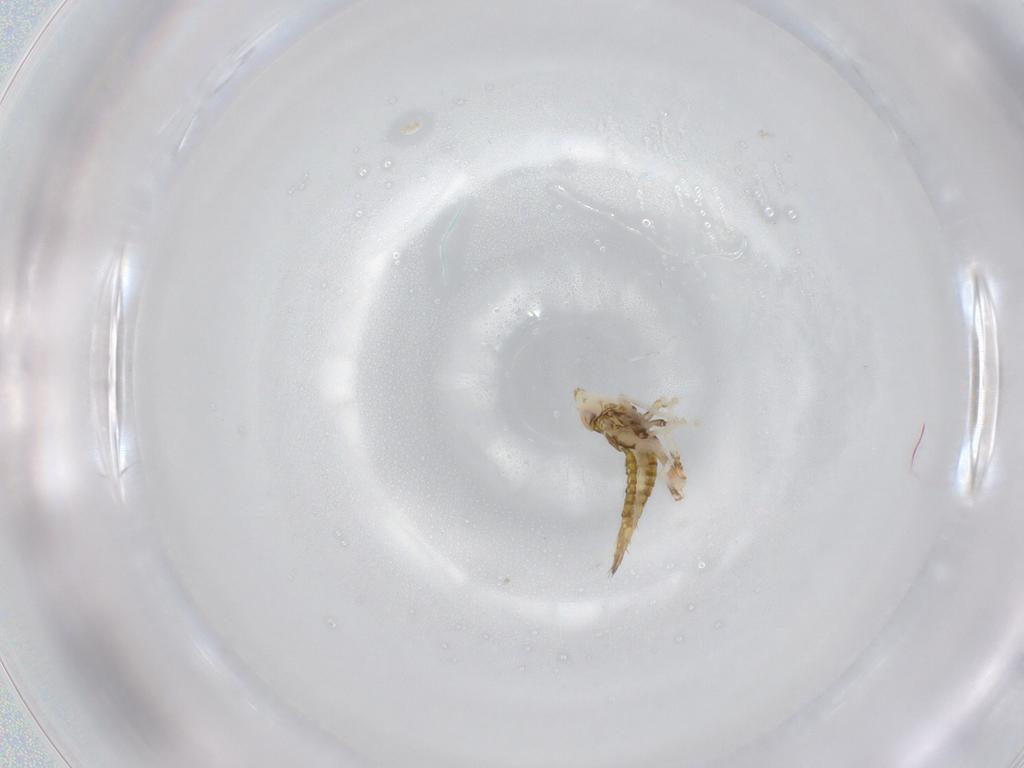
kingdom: Animalia
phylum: Arthropoda
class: Insecta
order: Hemiptera
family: Cicadellidae
